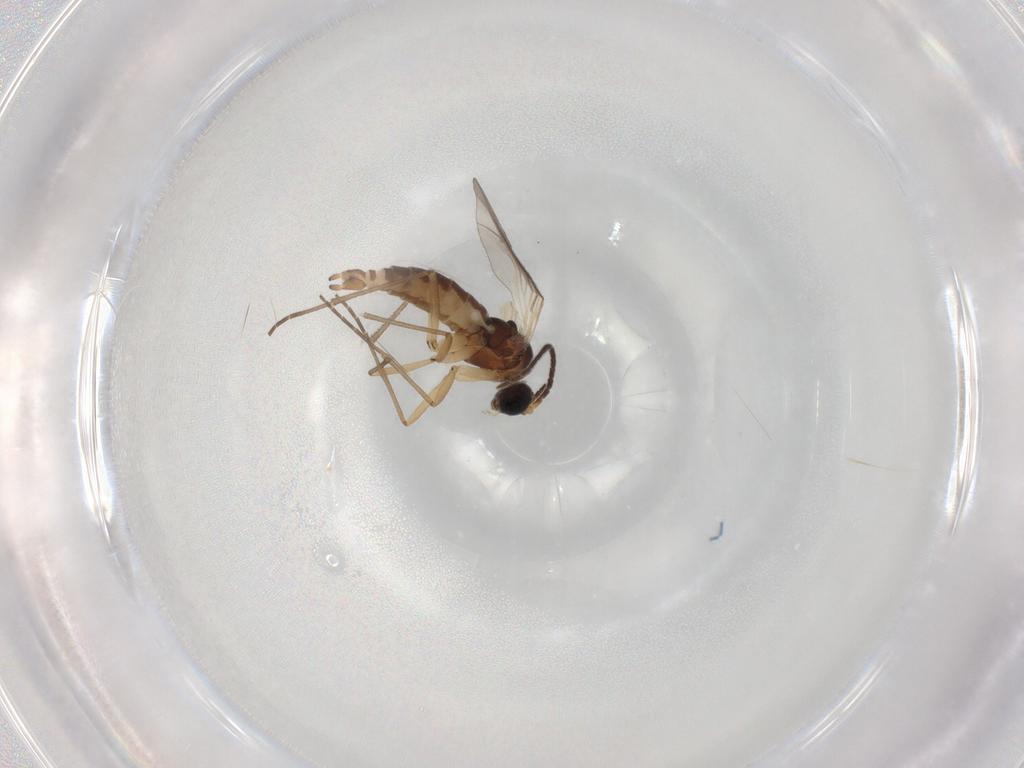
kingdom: Animalia
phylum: Arthropoda
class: Insecta
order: Diptera
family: Sciaridae
